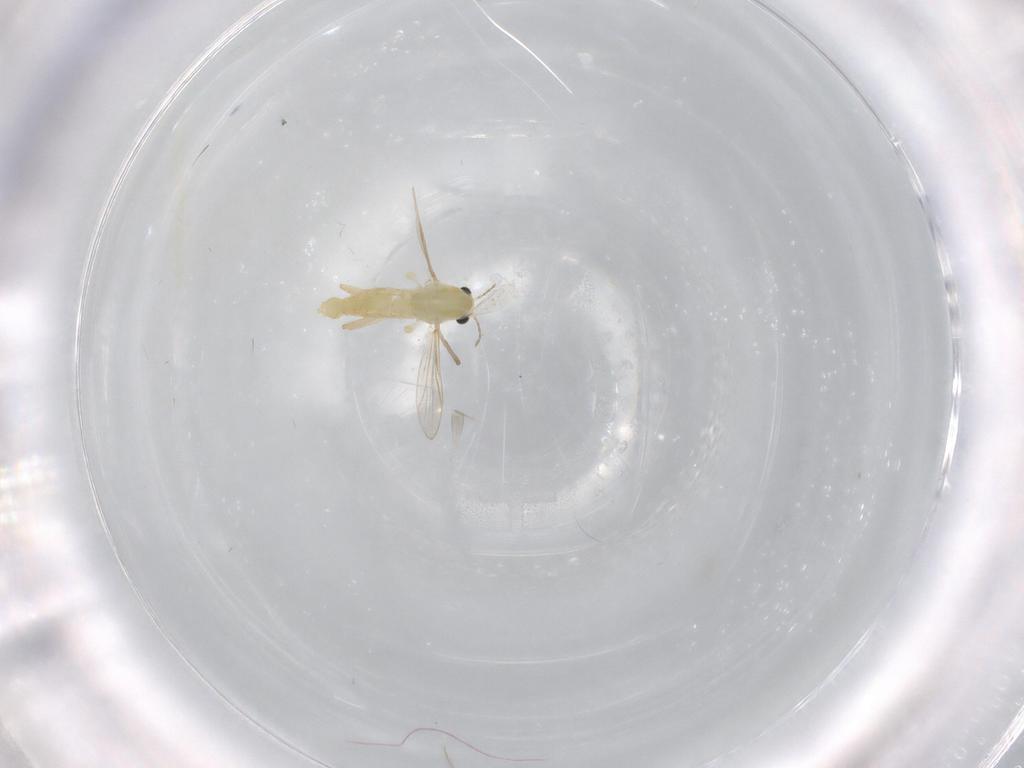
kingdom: Animalia
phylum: Arthropoda
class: Insecta
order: Diptera
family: Chironomidae
